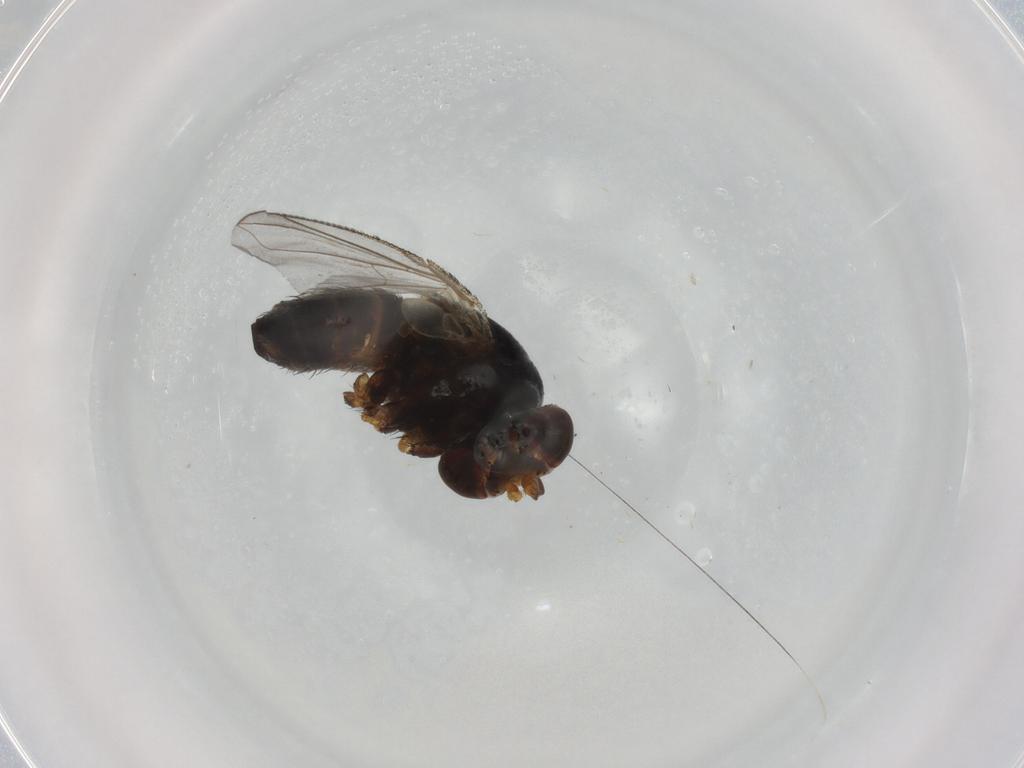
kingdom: Animalia
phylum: Arthropoda
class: Insecta
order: Diptera
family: Tachinidae
